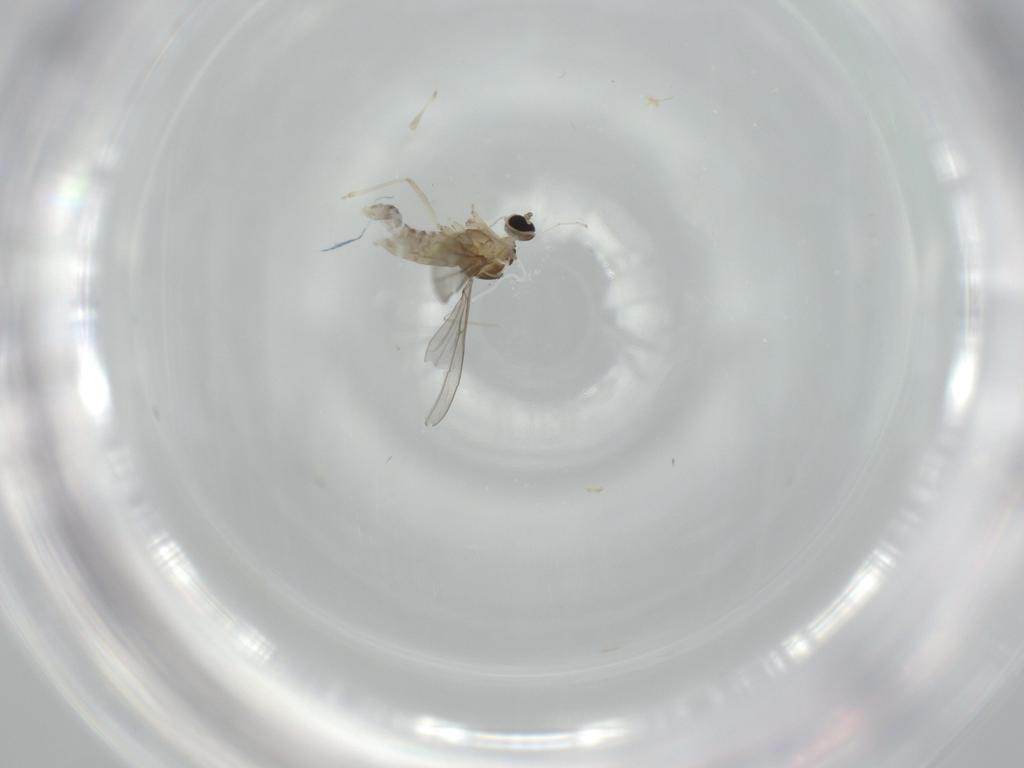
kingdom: Animalia
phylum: Arthropoda
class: Insecta
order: Diptera
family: Cecidomyiidae
